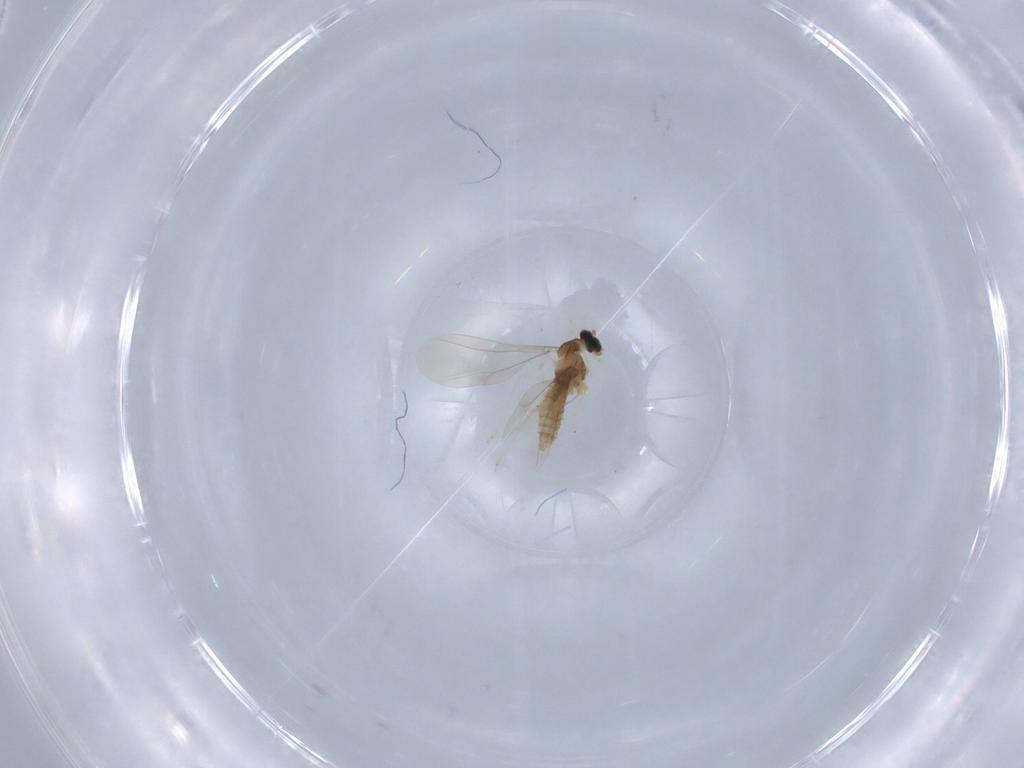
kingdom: Animalia
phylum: Arthropoda
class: Insecta
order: Diptera
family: Cecidomyiidae
